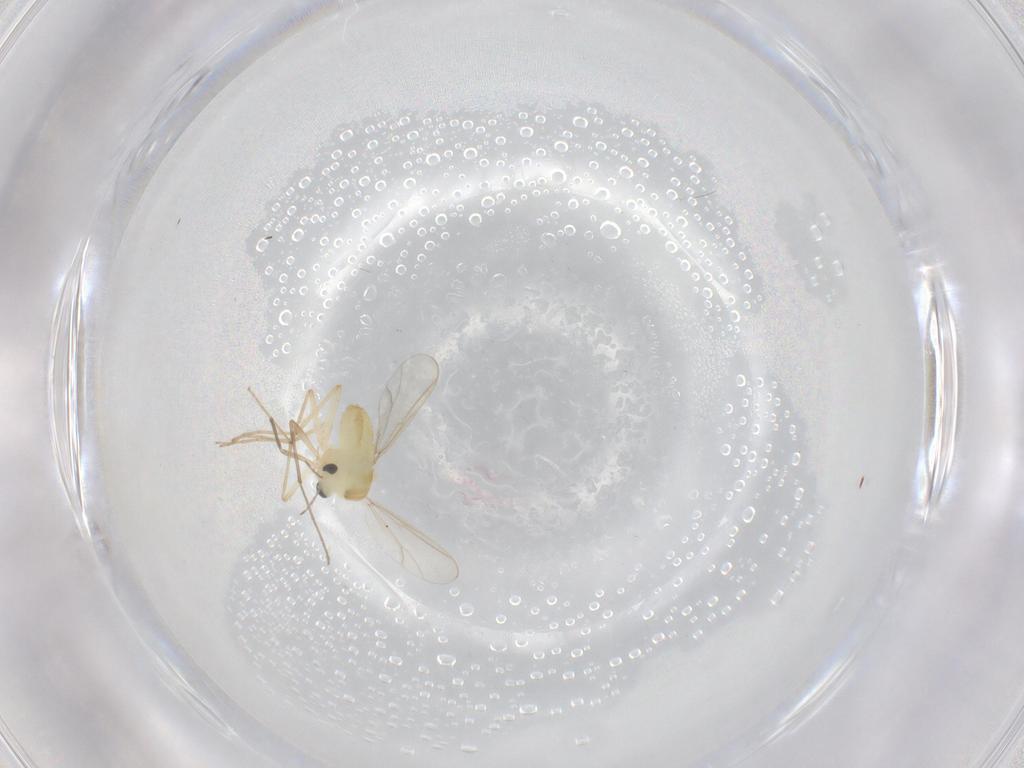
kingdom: Animalia
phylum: Arthropoda
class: Insecta
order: Diptera
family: Chironomidae
